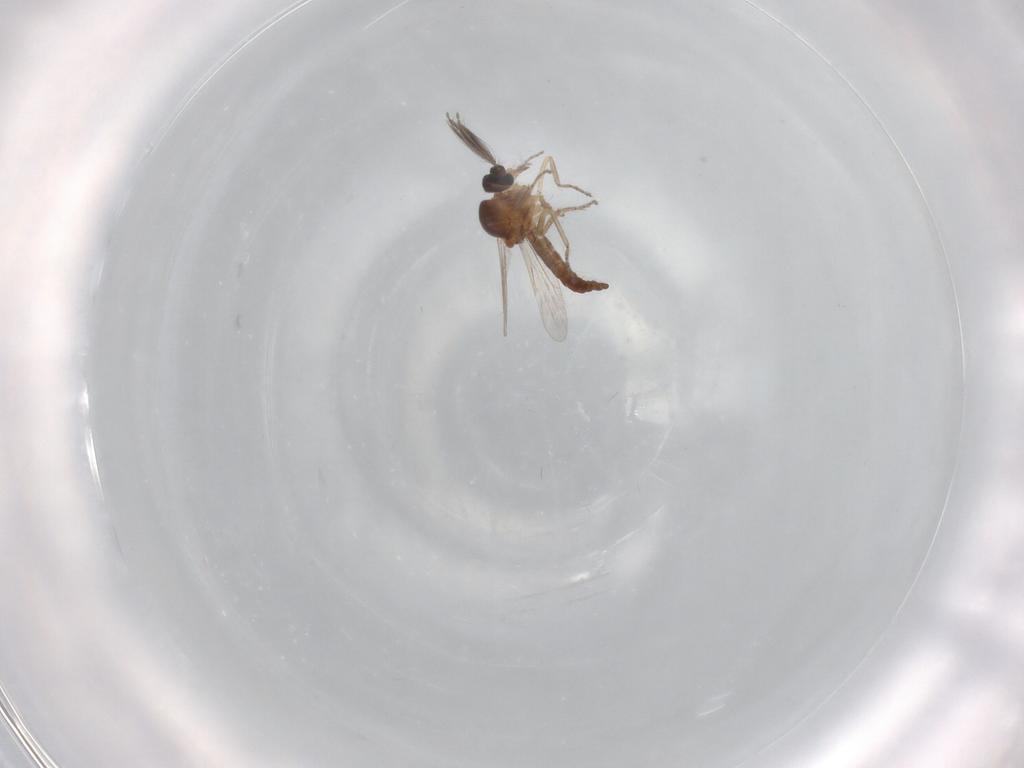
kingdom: Animalia
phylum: Arthropoda
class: Insecta
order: Diptera
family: Ceratopogonidae
